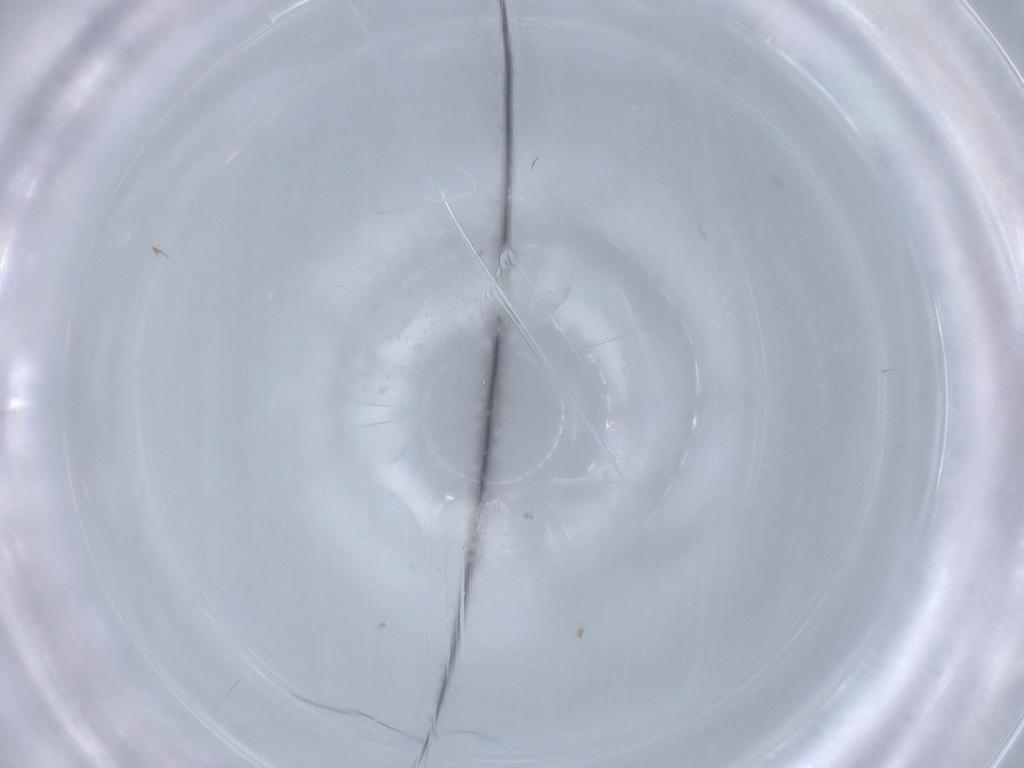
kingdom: Animalia
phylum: Arthropoda
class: Insecta
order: Diptera
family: Cecidomyiidae
